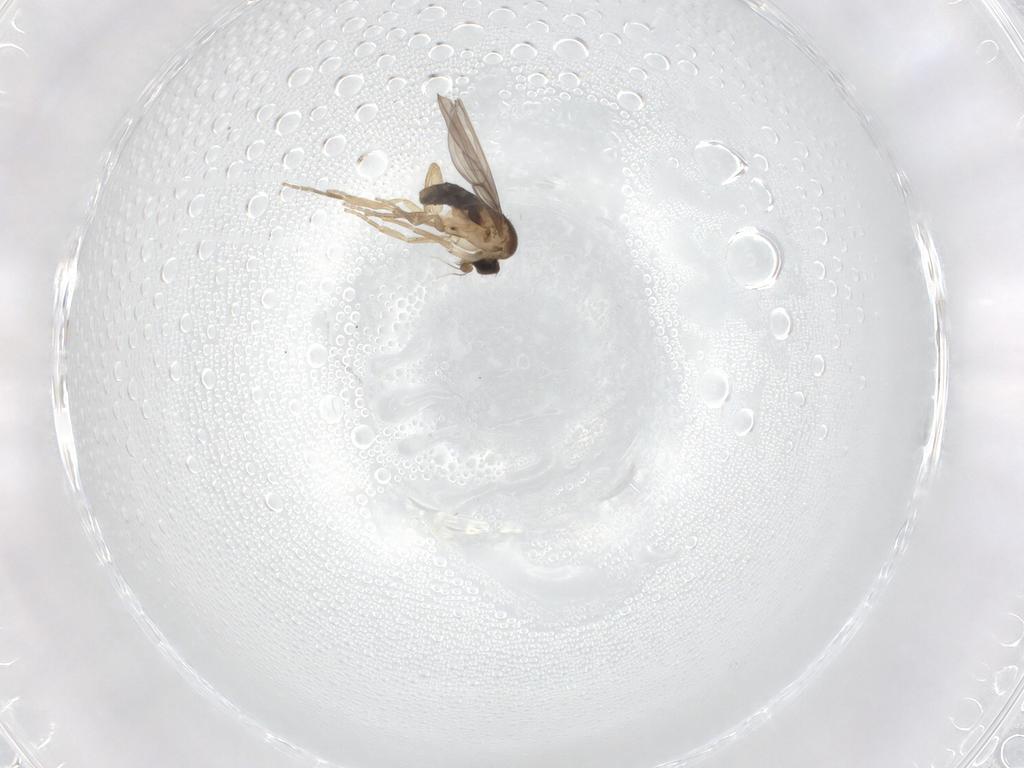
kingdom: Animalia
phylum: Arthropoda
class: Insecta
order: Diptera
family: Phoridae
